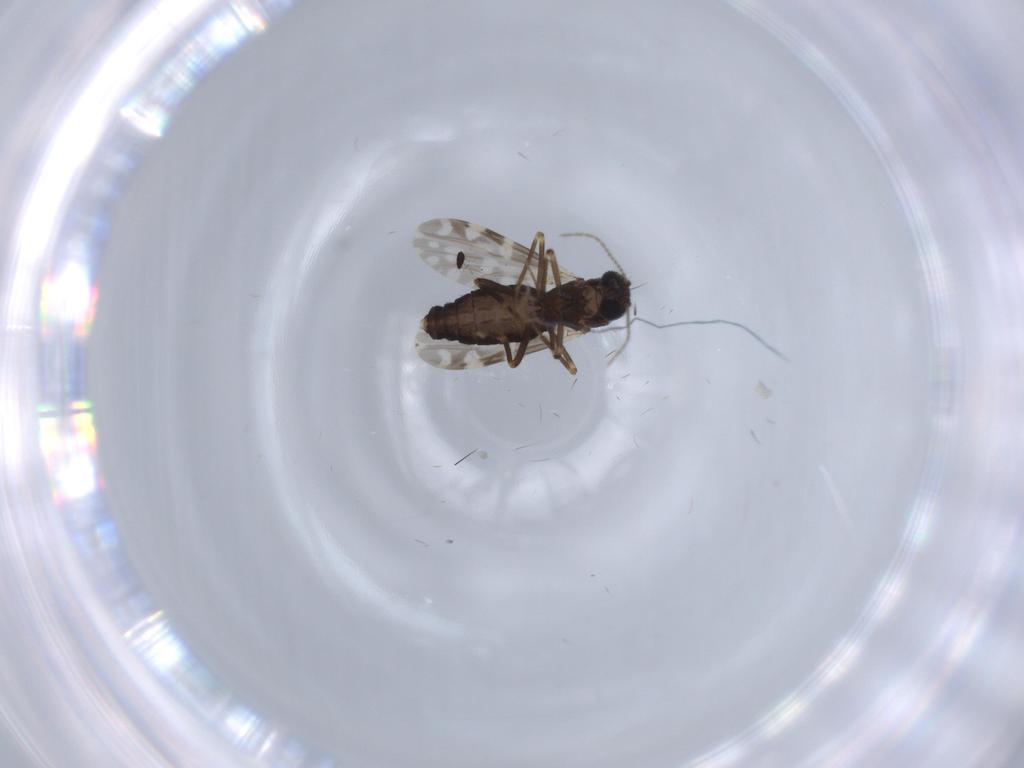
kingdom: Animalia
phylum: Arthropoda
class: Insecta
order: Diptera
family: Ceratopogonidae
